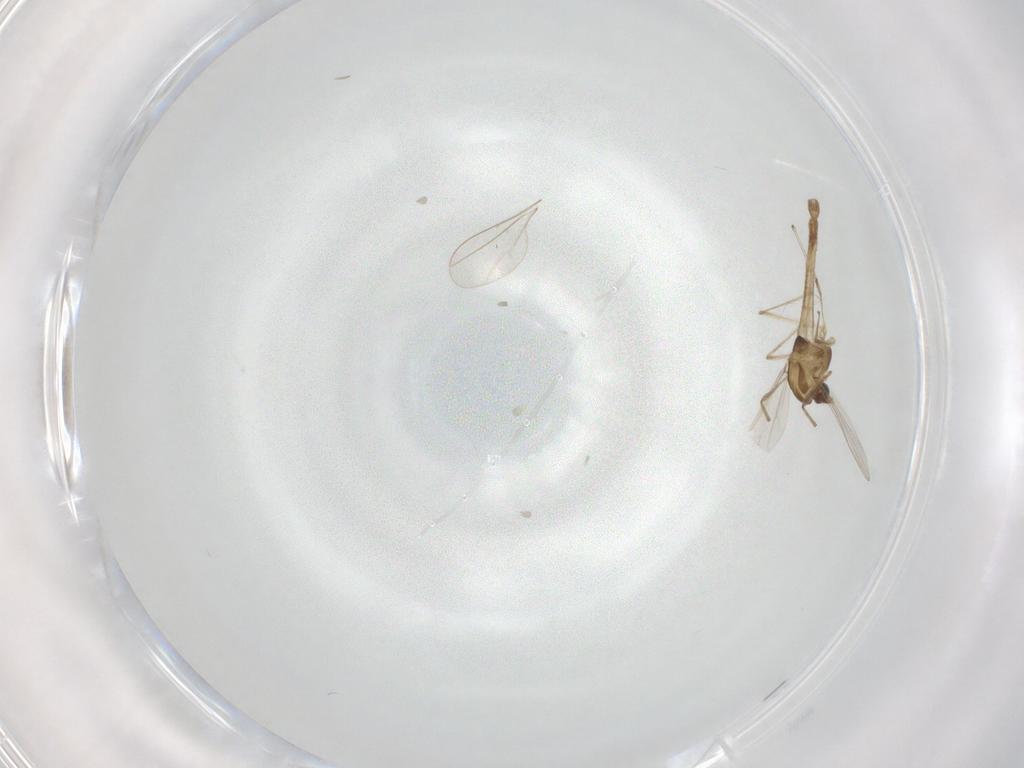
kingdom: Animalia
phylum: Arthropoda
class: Insecta
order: Diptera
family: Chironomidae
